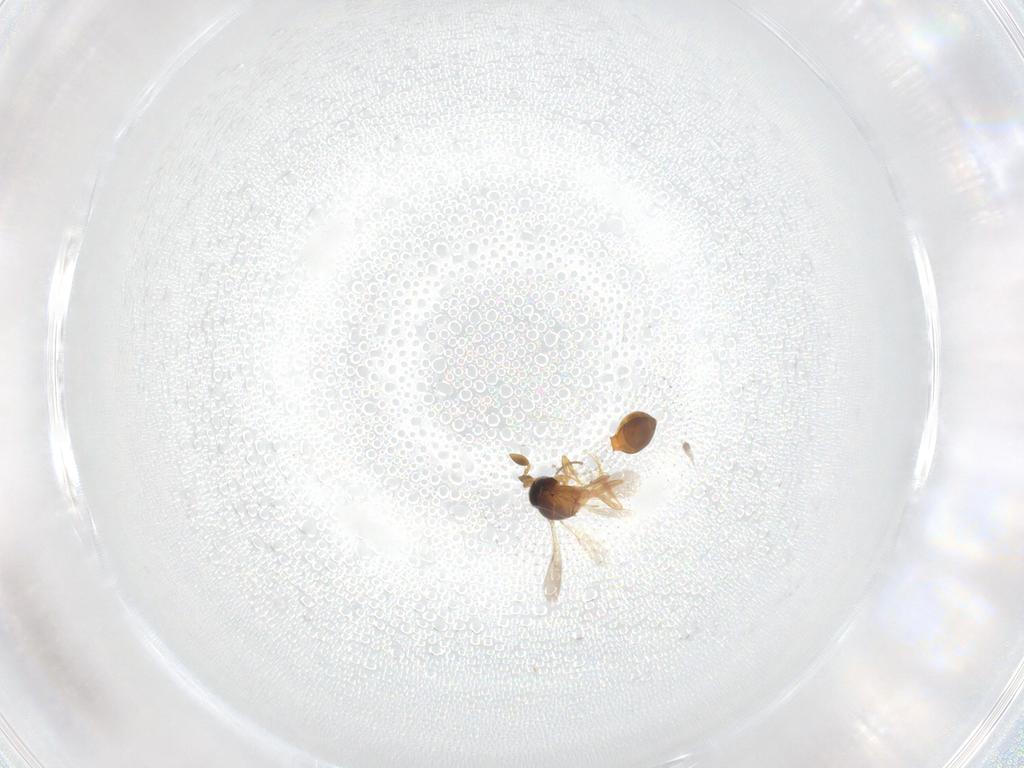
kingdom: Animalia
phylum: Arthropoda
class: Insecta
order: Hymenoptera
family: Scelionidae
